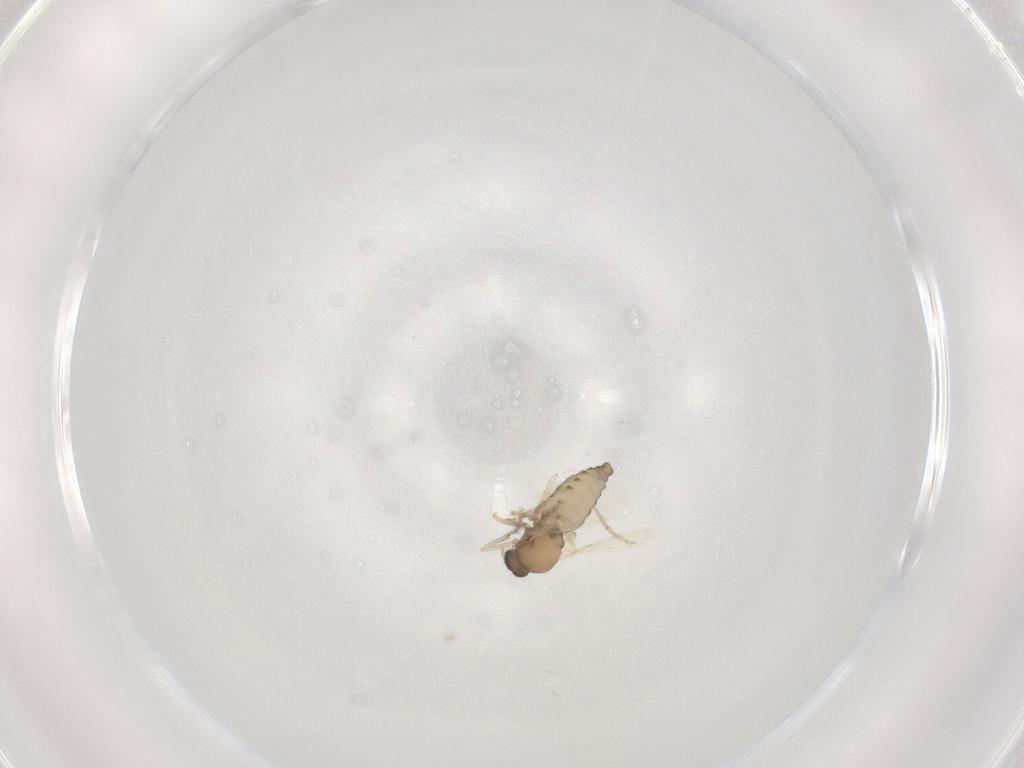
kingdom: Animalia
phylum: Arthropoda
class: Insecta
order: Diptera
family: Ceratopogonidae
